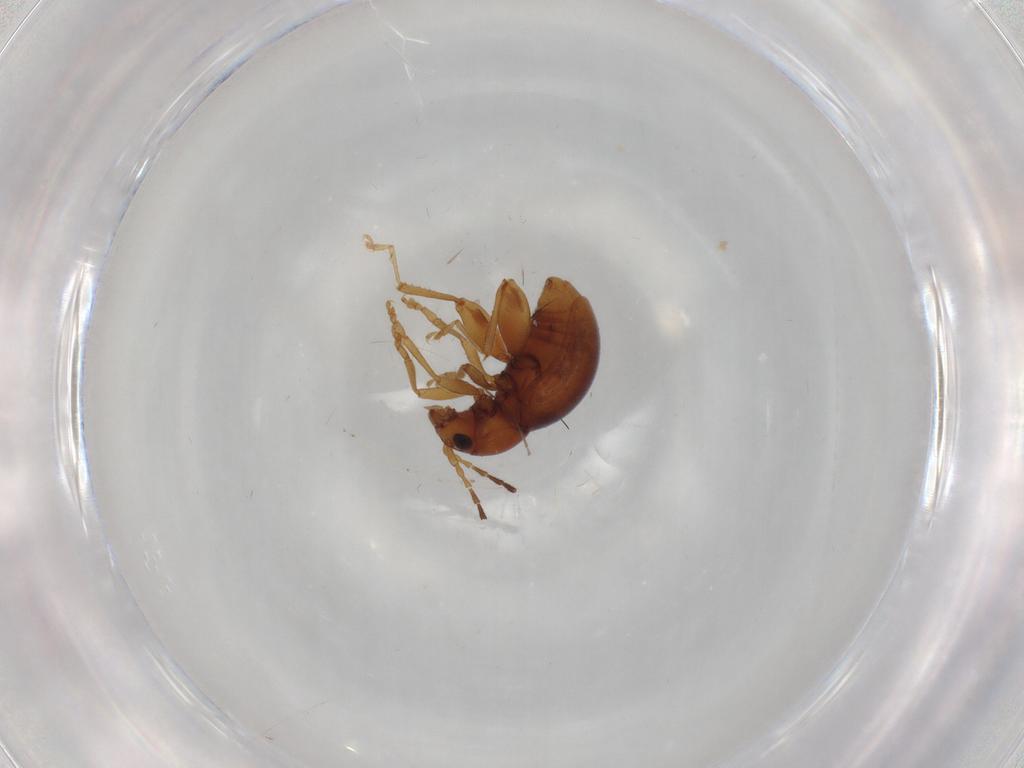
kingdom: Animalia
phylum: Arthropoda
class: Insecta
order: Coleoptera
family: Chrysomelidae
